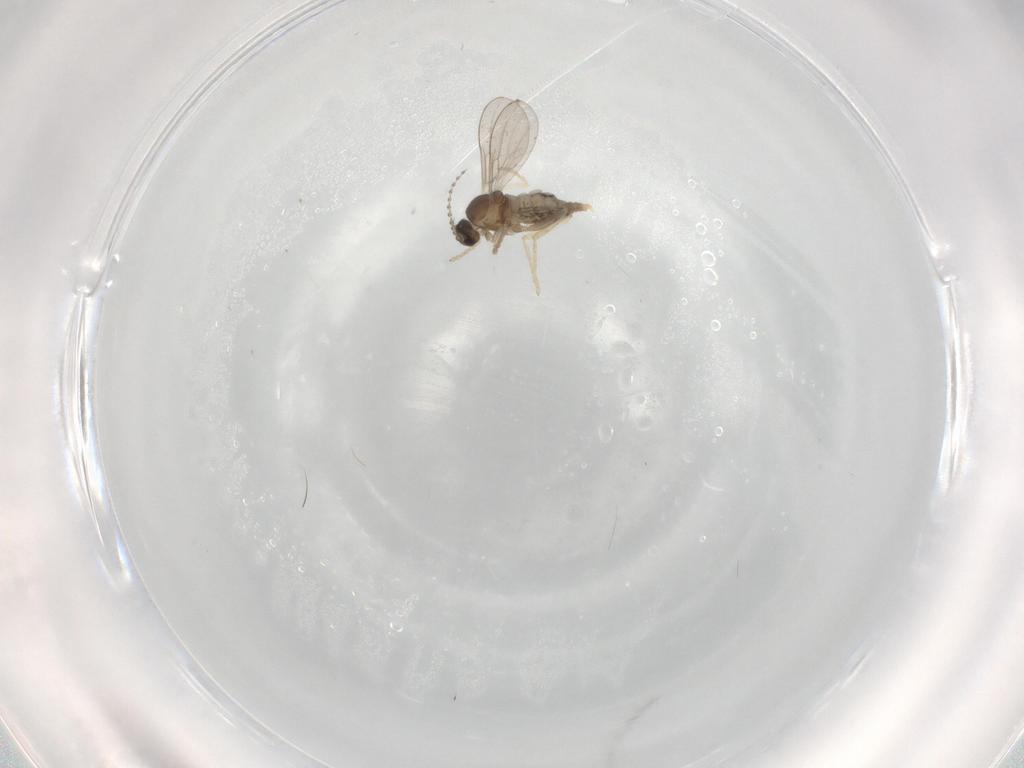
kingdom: Animalia
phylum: Arthropoda
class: Insecta
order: Diptera
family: Cecidomyiidae
